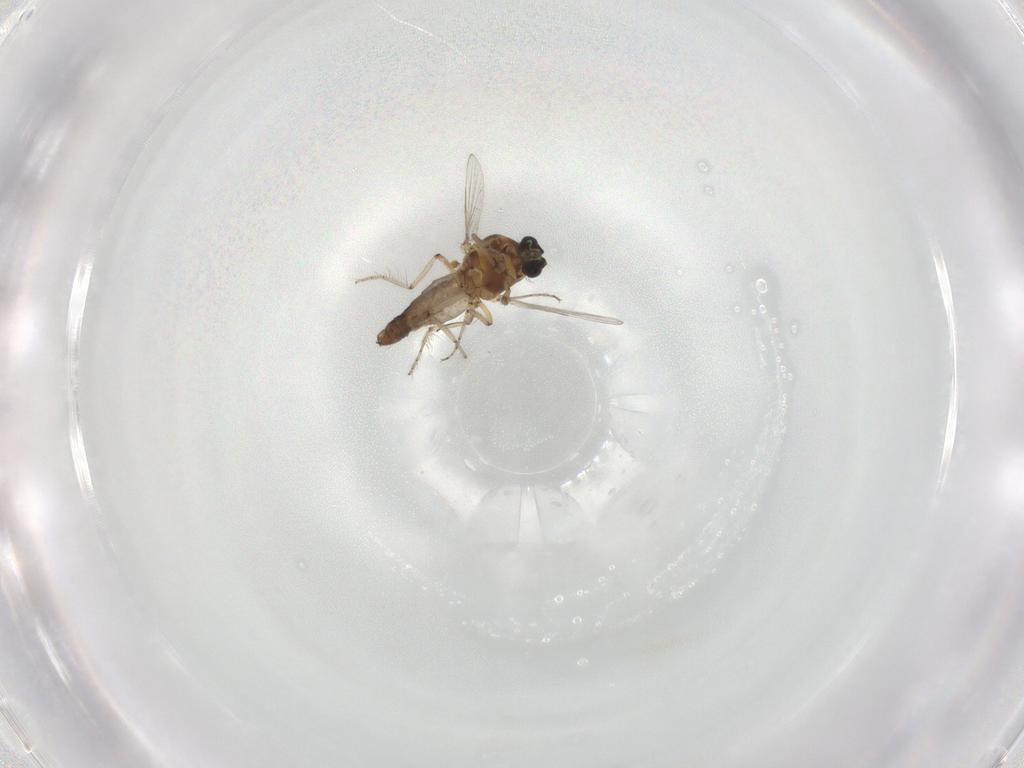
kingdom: Animalia
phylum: Arthropoda
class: Insecta
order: Diptera
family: Ceratopogonidae
